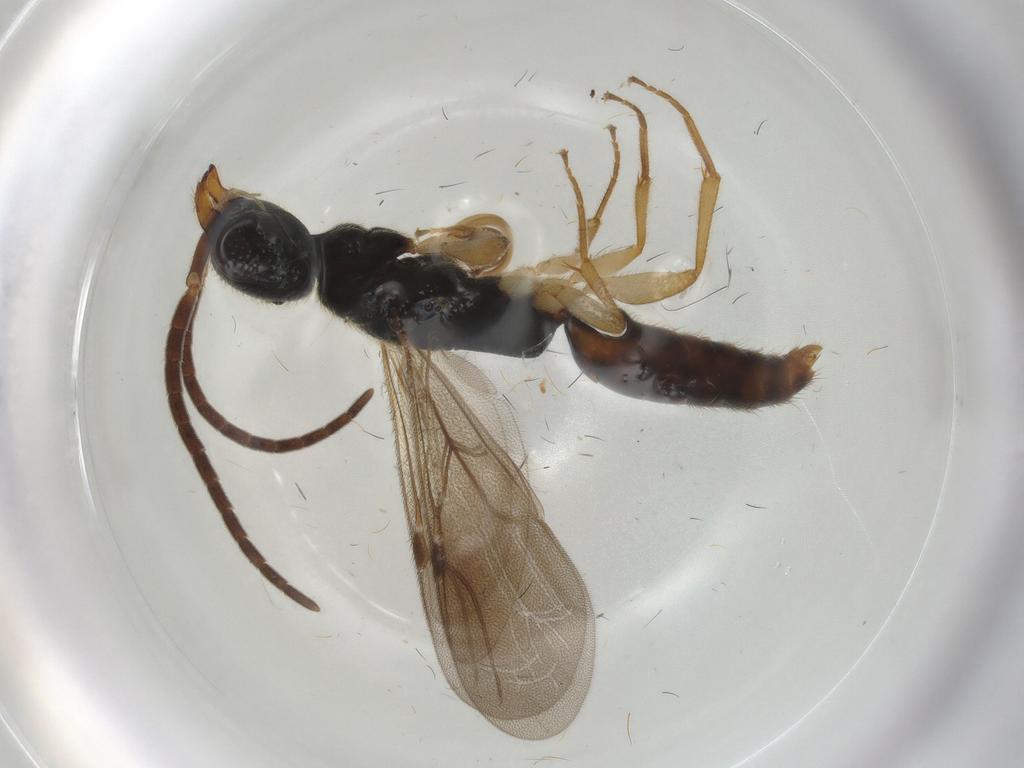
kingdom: Animalia
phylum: Arthropoda
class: Insecta
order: Hymenoptera
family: Bethylidae
